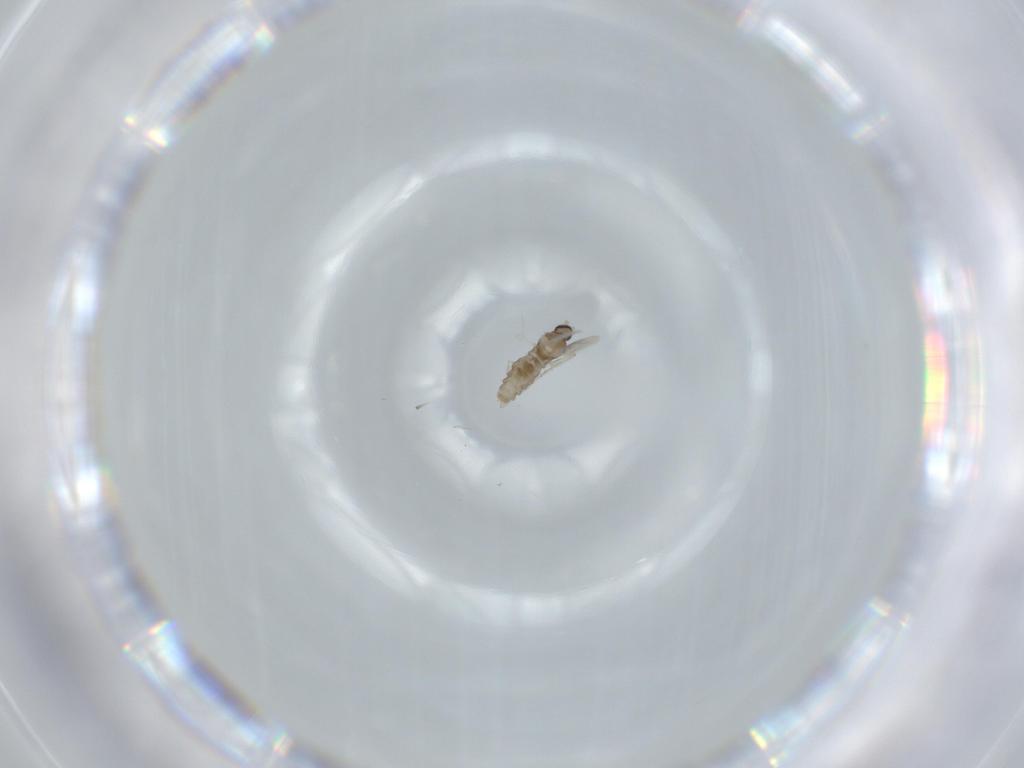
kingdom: Animalia
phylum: Arthropoda
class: Insecta
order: Diptera
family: Cecidomyiidae
